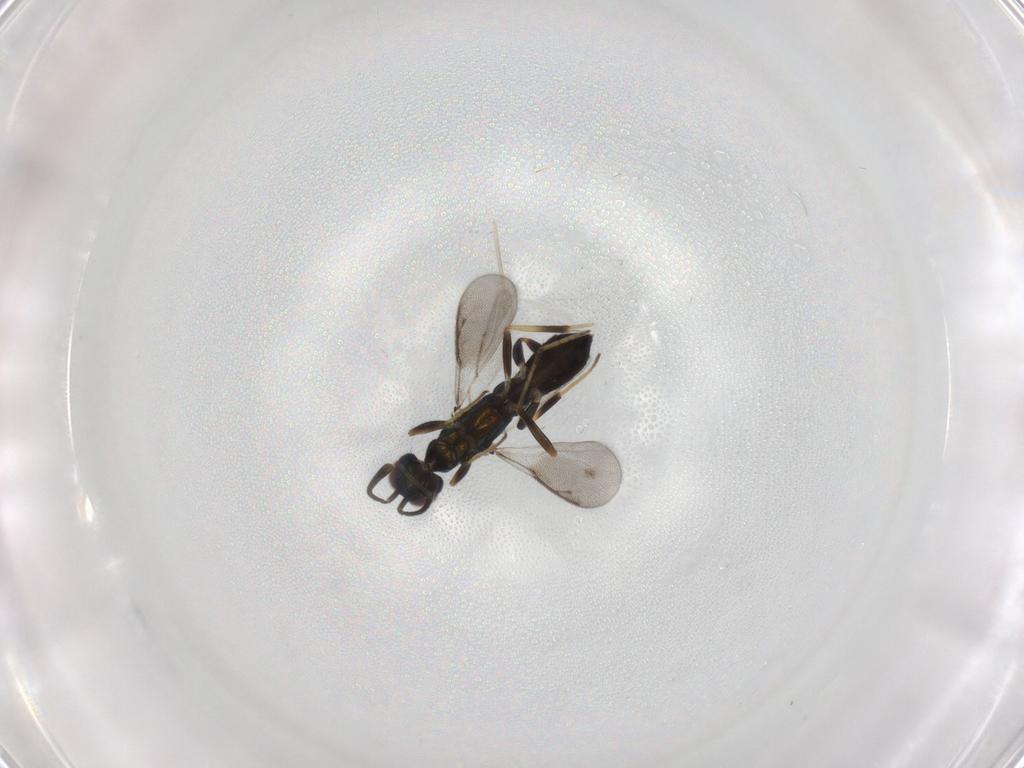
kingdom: Animalia
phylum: Arthropoda
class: Insecta
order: Hymenoptera
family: Eupelmidae
